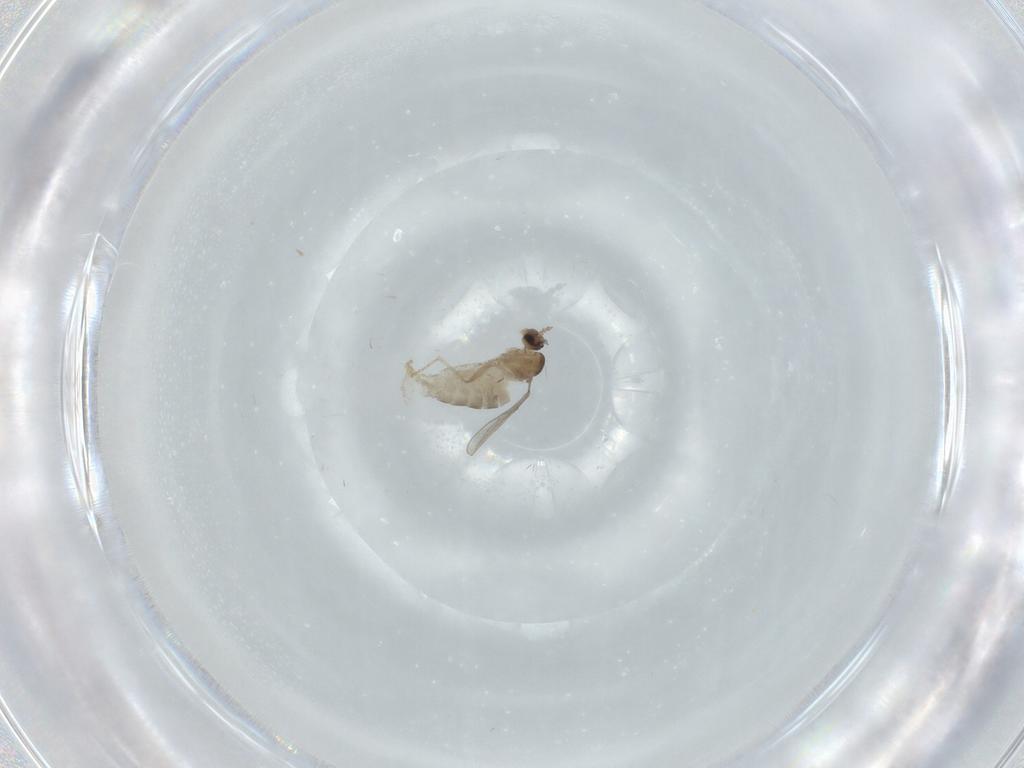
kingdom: Animalia
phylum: Arthropoda
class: Insecta
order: Diptera
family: Cecidomyiidae
